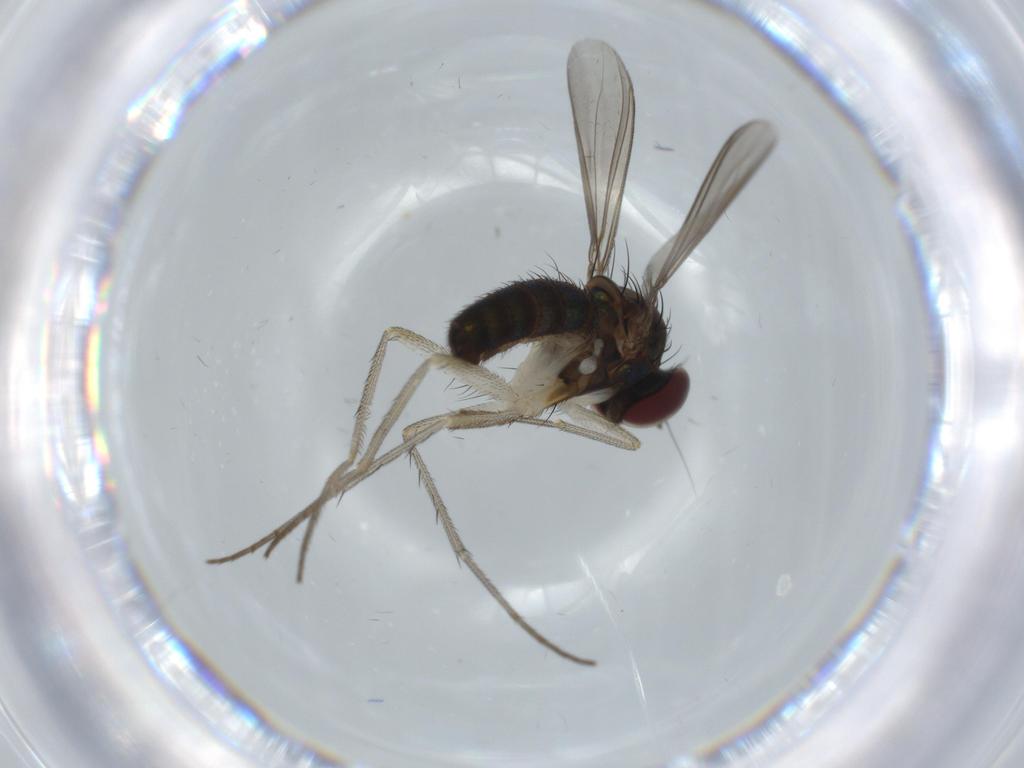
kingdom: Animalia
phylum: Arthropoda
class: Insecta
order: Diptera
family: Dolichopodidae
